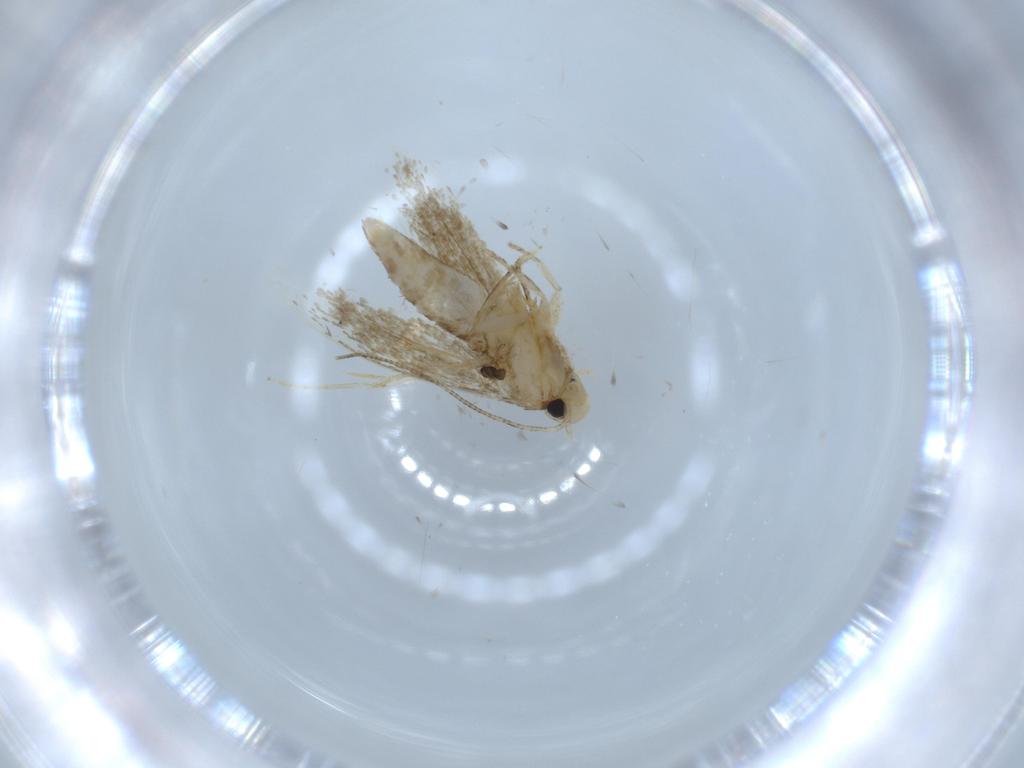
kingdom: Animalia
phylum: Arthropoda
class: Insecta
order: Lepidoptera
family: Tineidae
